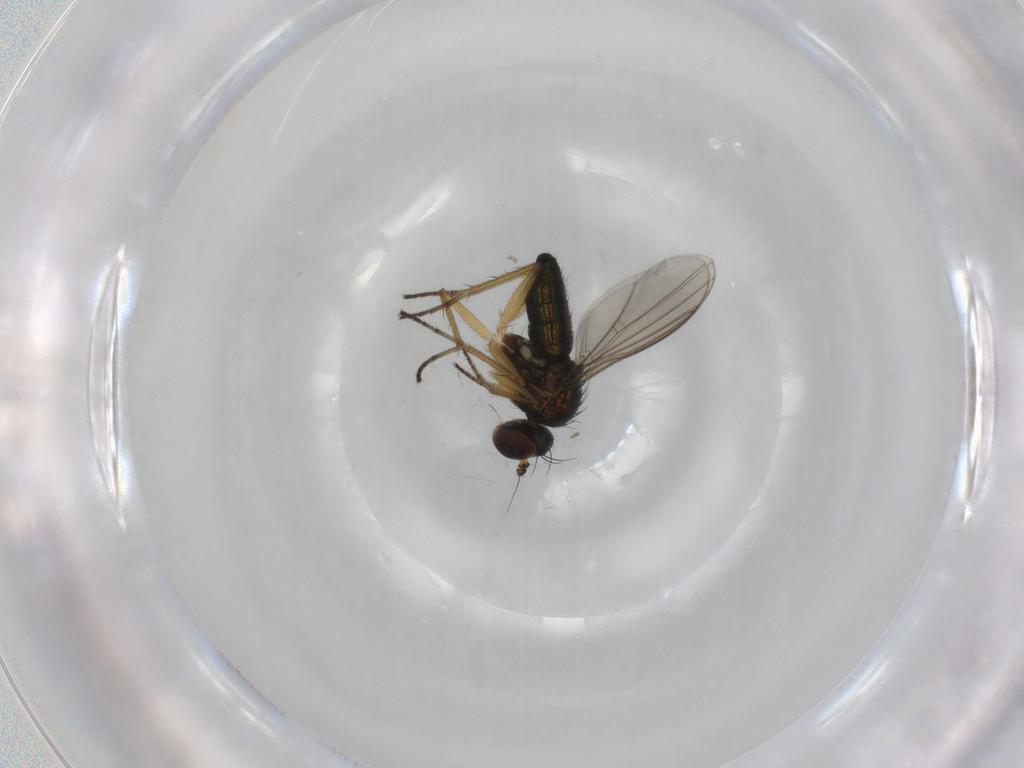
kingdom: Animalia
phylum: Arthropoda
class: Insecta
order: Diptera
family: Dolichopodidae
